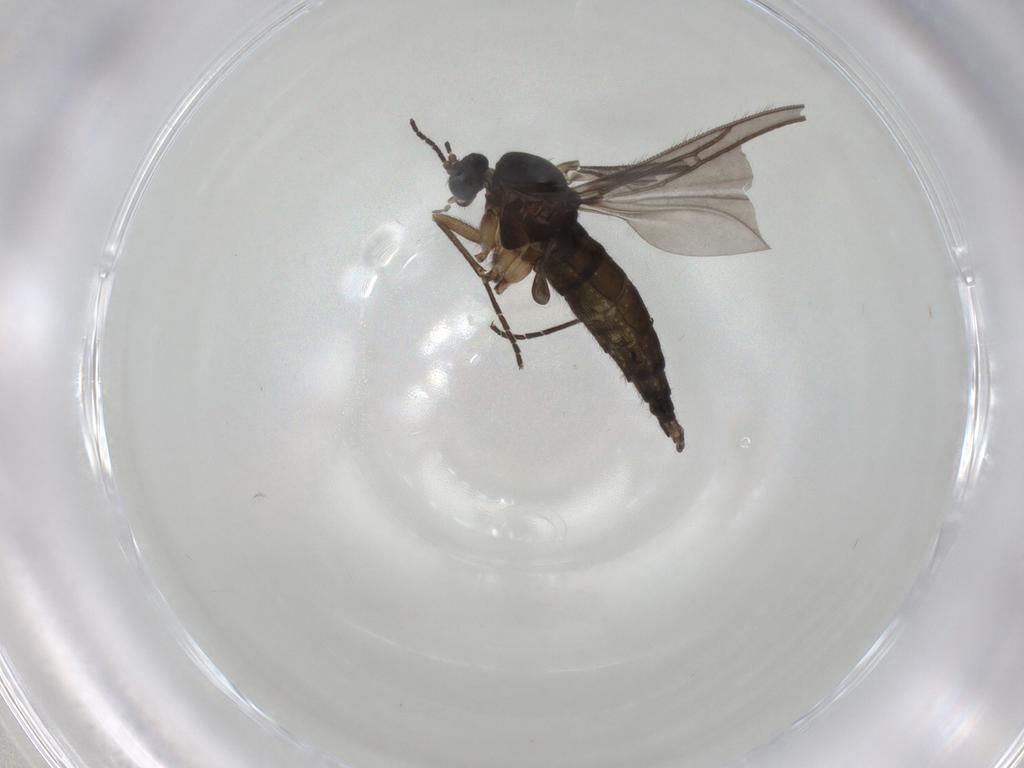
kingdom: Animalia
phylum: Arthropoda
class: Insecta
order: Diptera
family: Sciaridae
